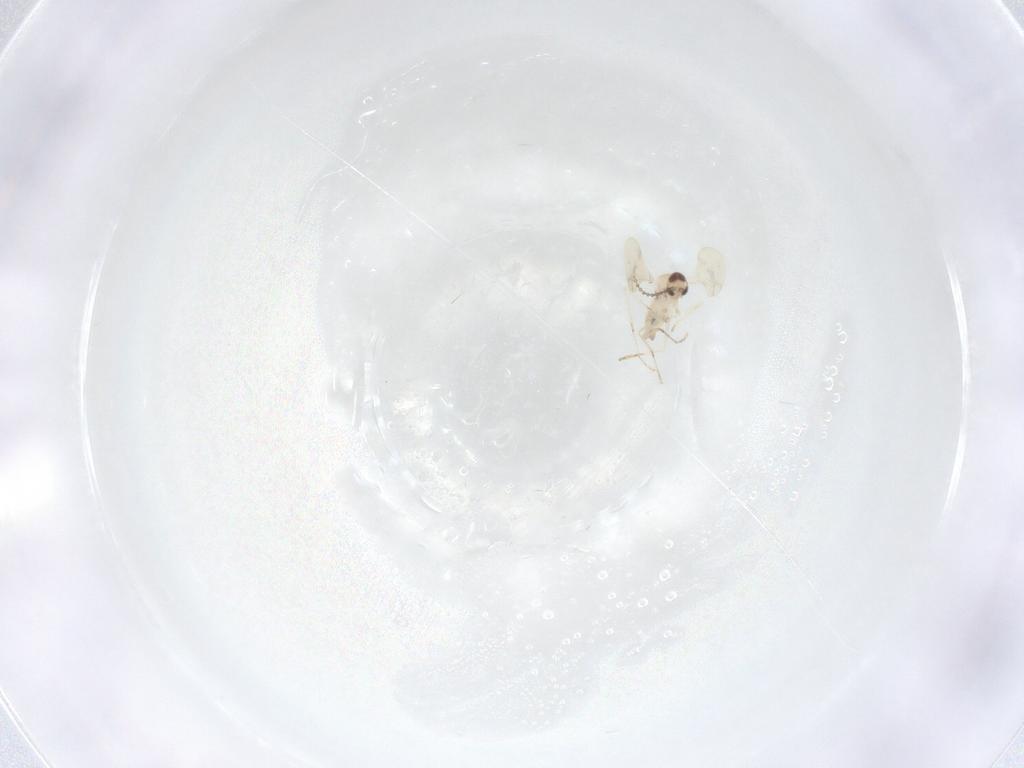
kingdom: Animalia
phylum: Arthropoda
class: Insecta
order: Diptera
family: Cecidomyiidae
